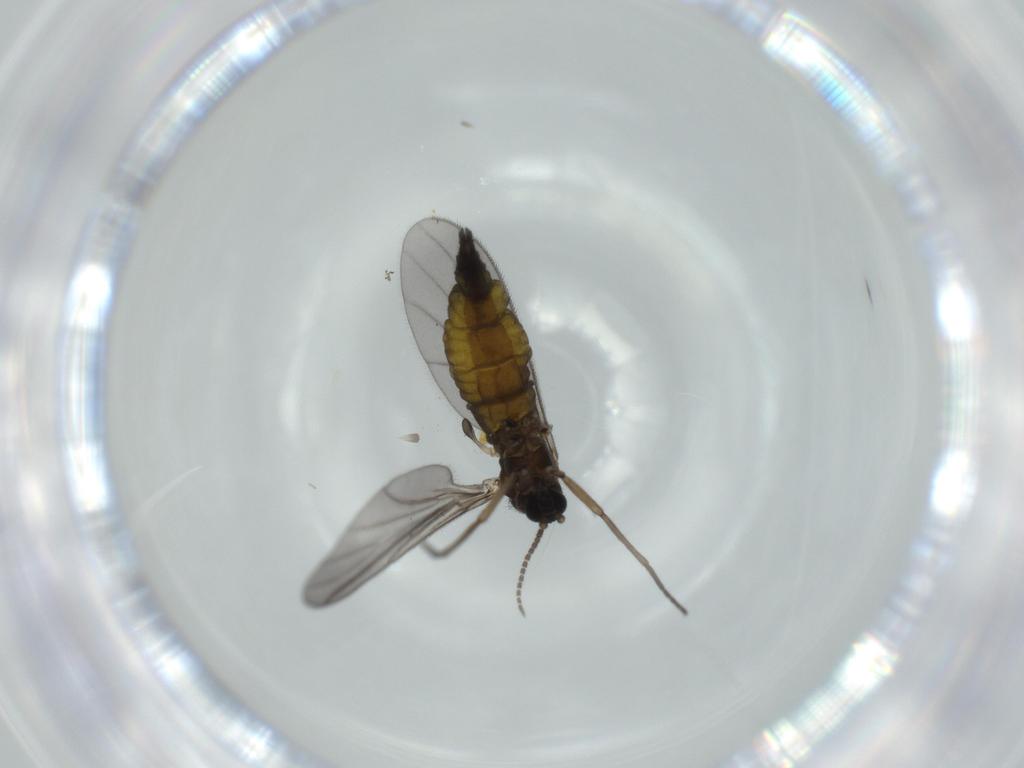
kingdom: Animalia
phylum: Arthropoda
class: Insecta
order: Diptera
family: Sciaridae
